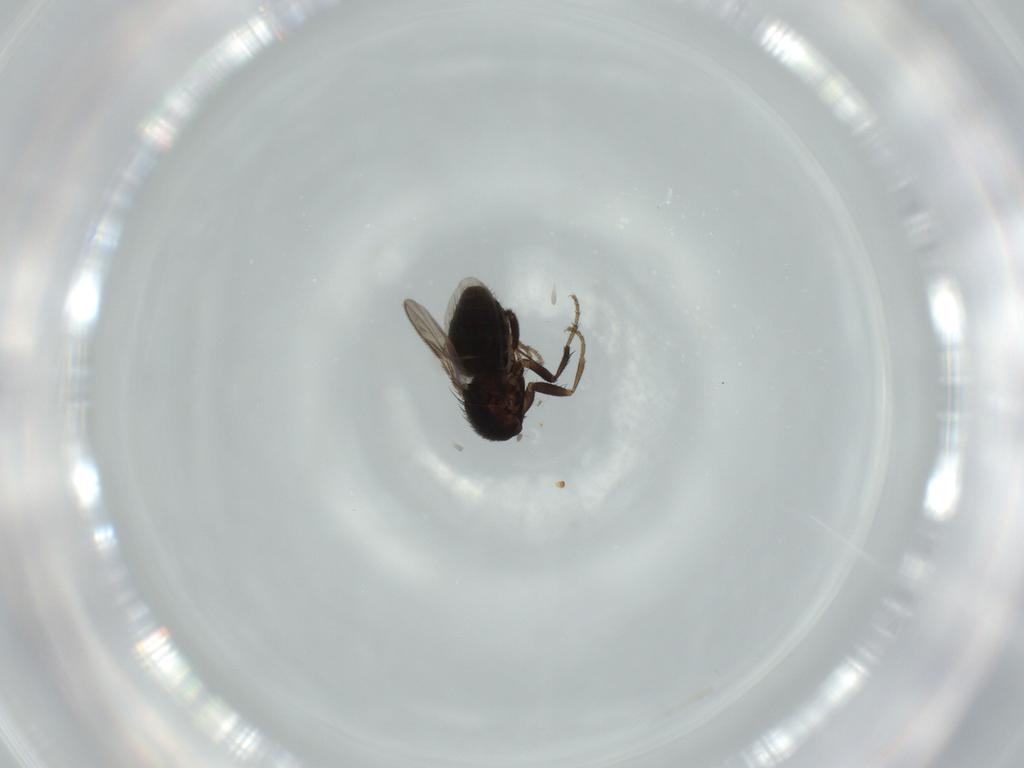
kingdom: Animalia
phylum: Arthropoda
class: Insecta
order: Diptera
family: Sphaeroceridae
